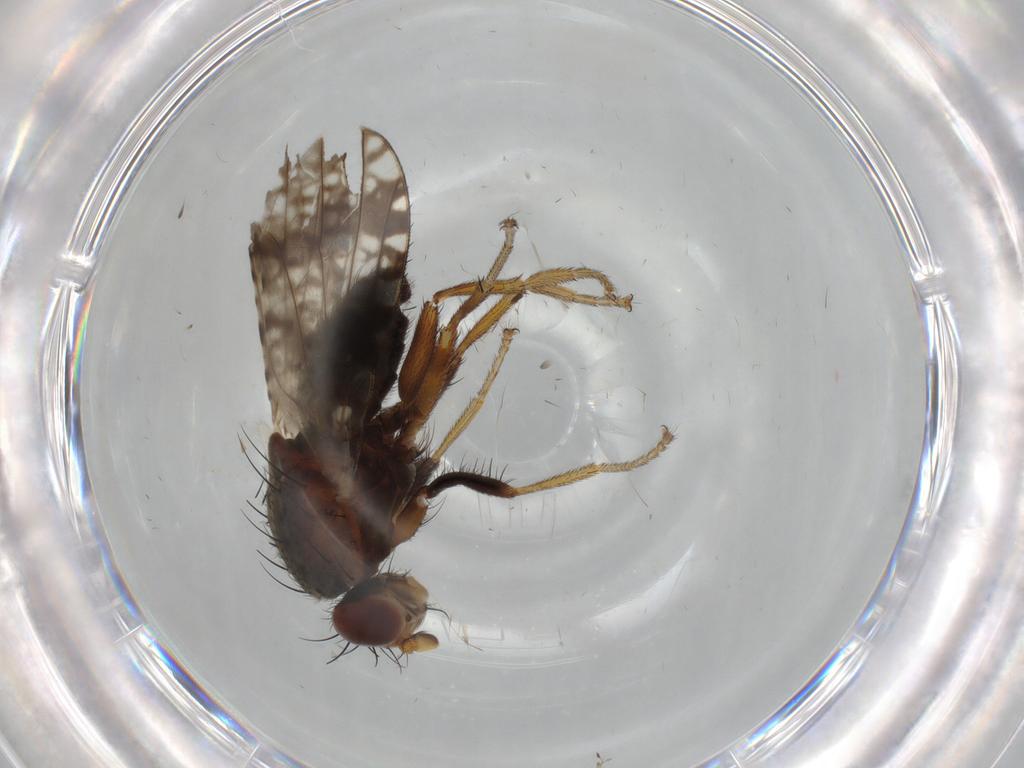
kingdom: Animalia
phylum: Arthropoda
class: Insecta
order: Diptera
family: Tephritidae
